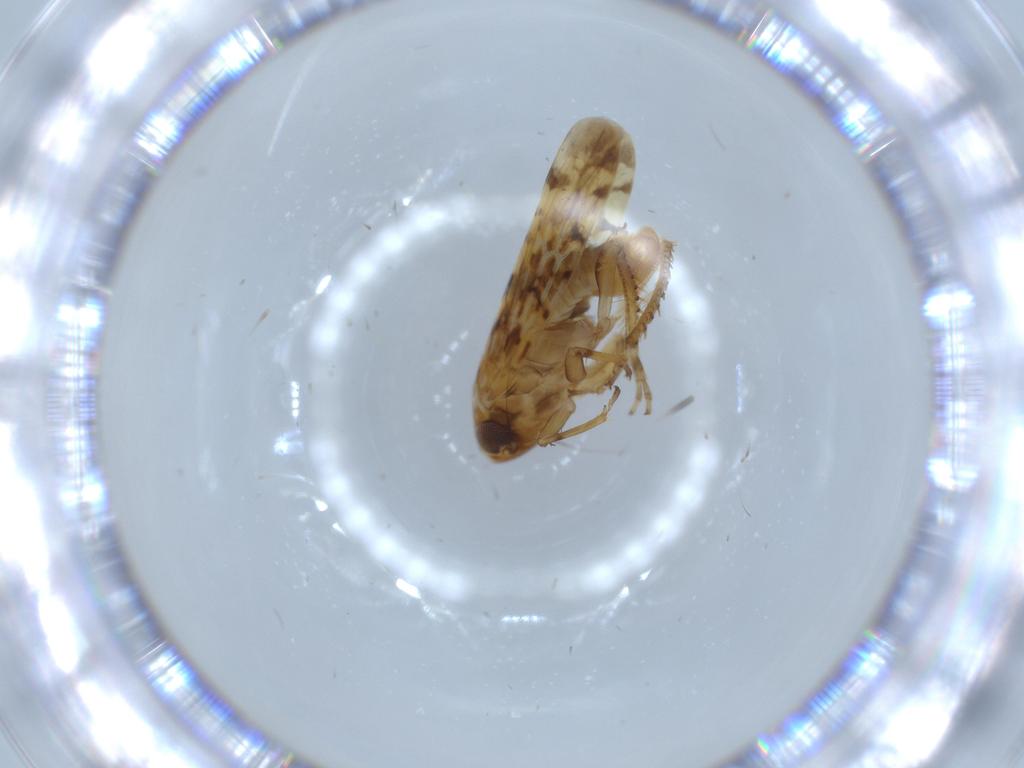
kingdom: Animalia
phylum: Arthropoda
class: Insecta
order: Hemiptera
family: Cicadellidae
